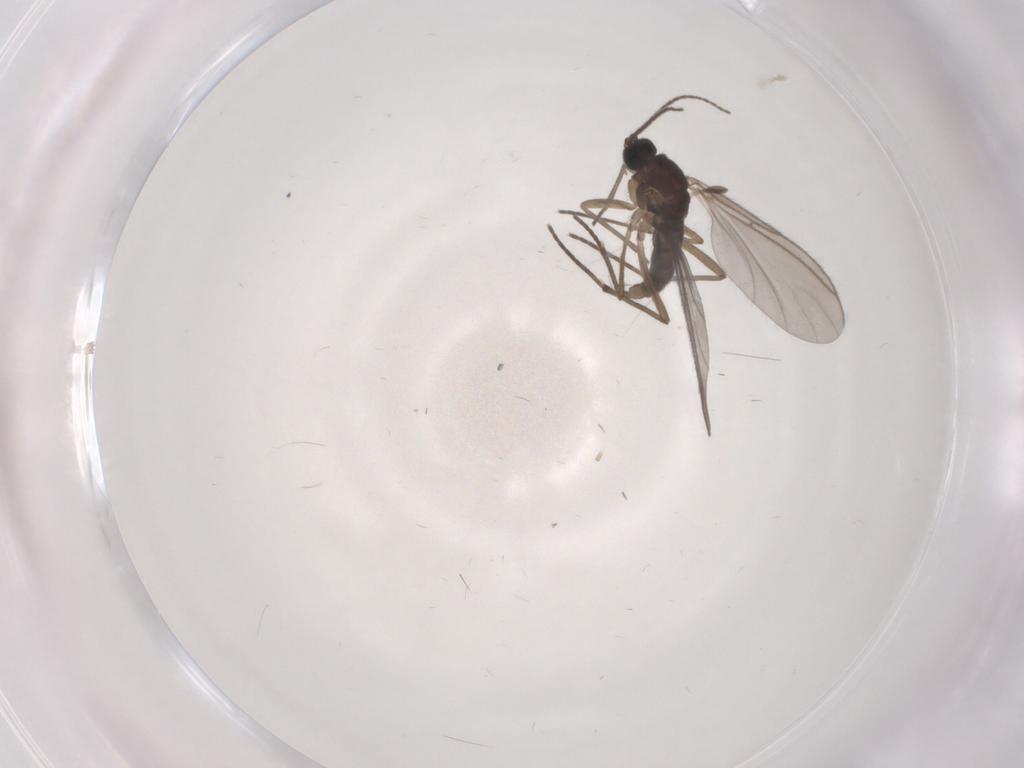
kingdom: Animalia
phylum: Arthropoda
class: Insecta
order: Diptera
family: Sciaridae
